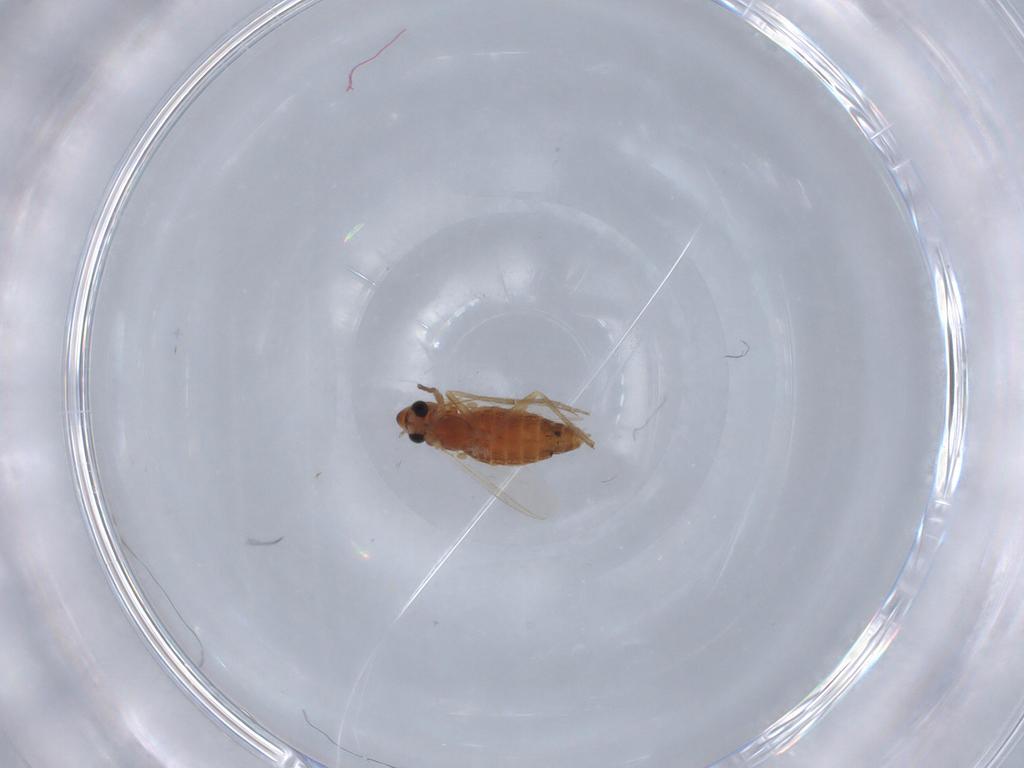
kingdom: Animalia
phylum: Arthropoda
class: Insecta
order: Diptera
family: Chironomidae
